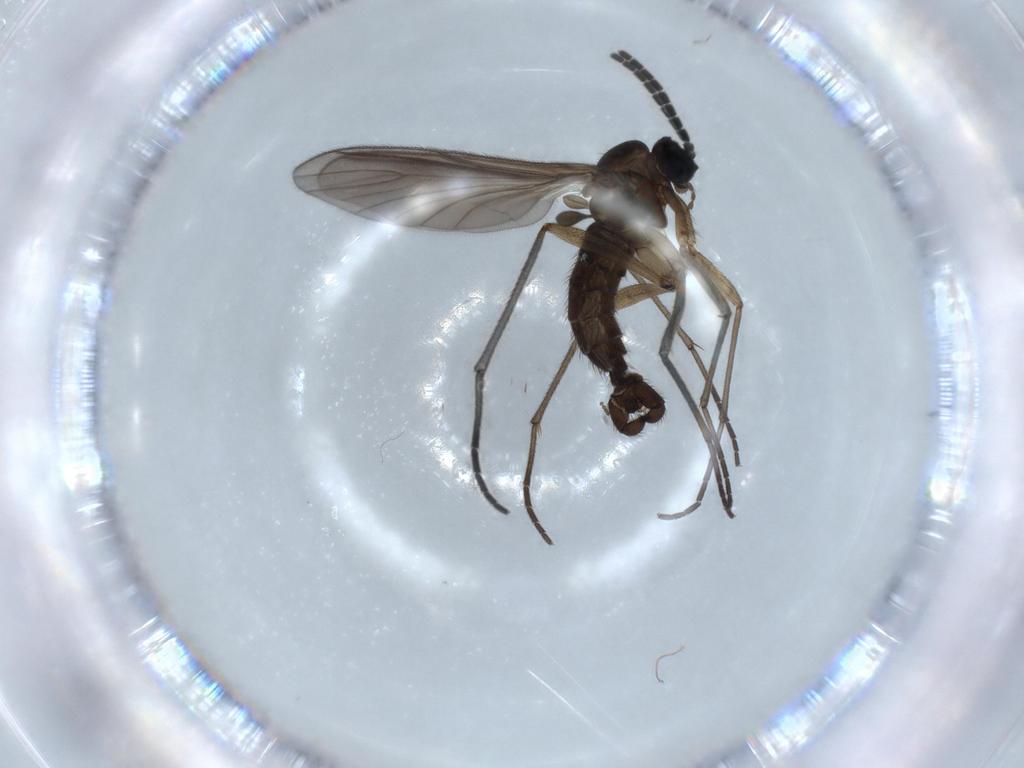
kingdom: Animalia
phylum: Arthropoda
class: Insecta
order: Diptera
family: Sciaridae
